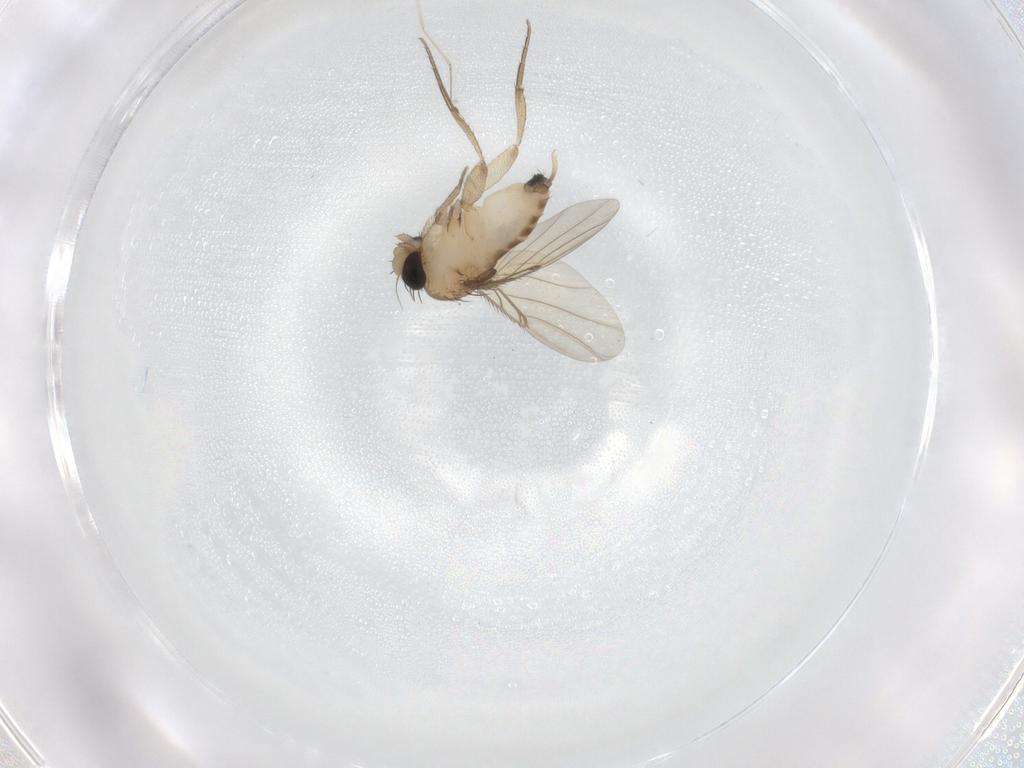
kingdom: Animalia
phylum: Arthropoda
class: Insecta
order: Diptera
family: Phoridae
